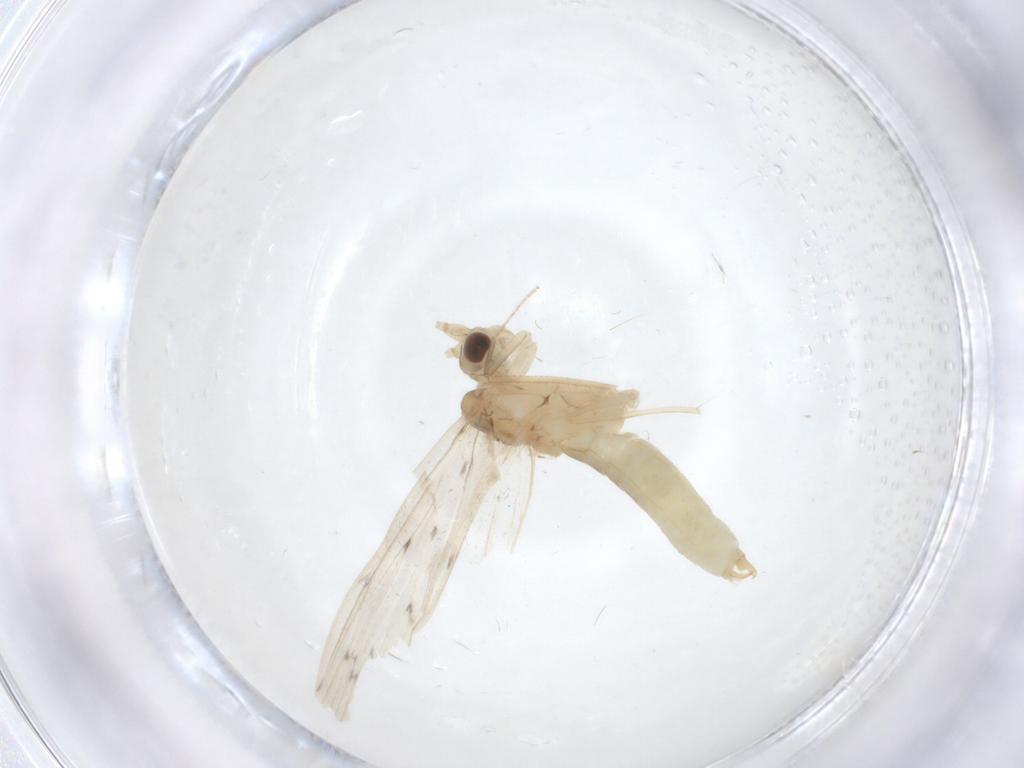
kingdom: Animalia
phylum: Arthropoda
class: Insecta
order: Trichoptera
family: Leptoceridae
